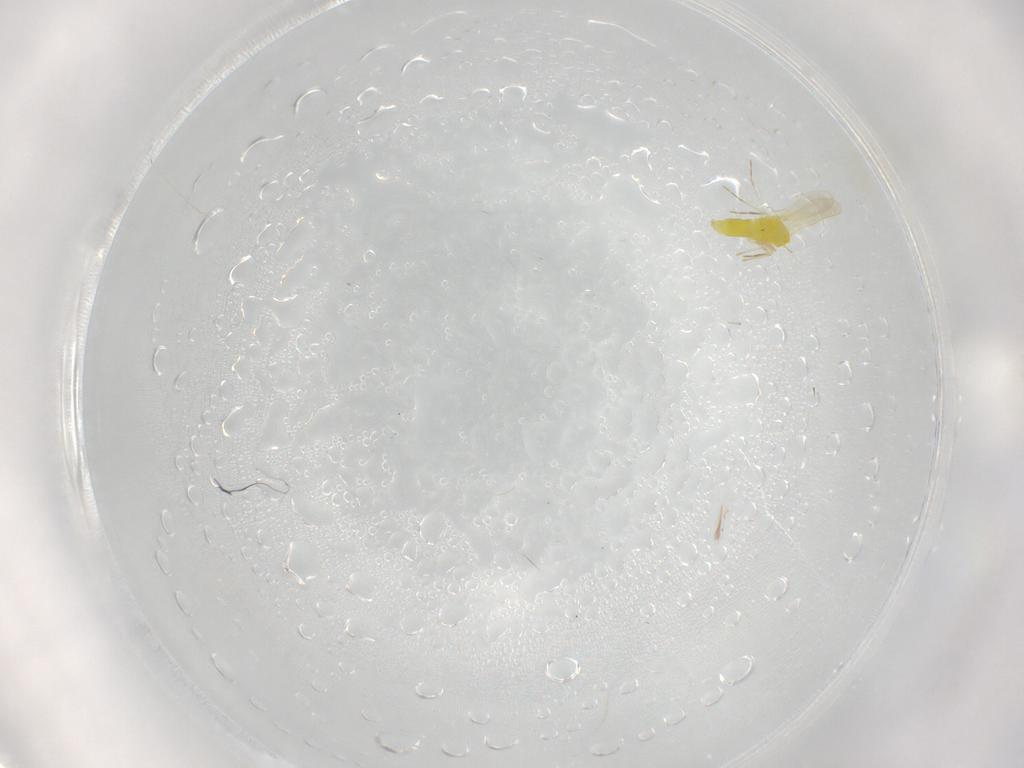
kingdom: Animalia
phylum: Arthropoda
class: Insecta
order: Hemiptera
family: Aleyrodidae
